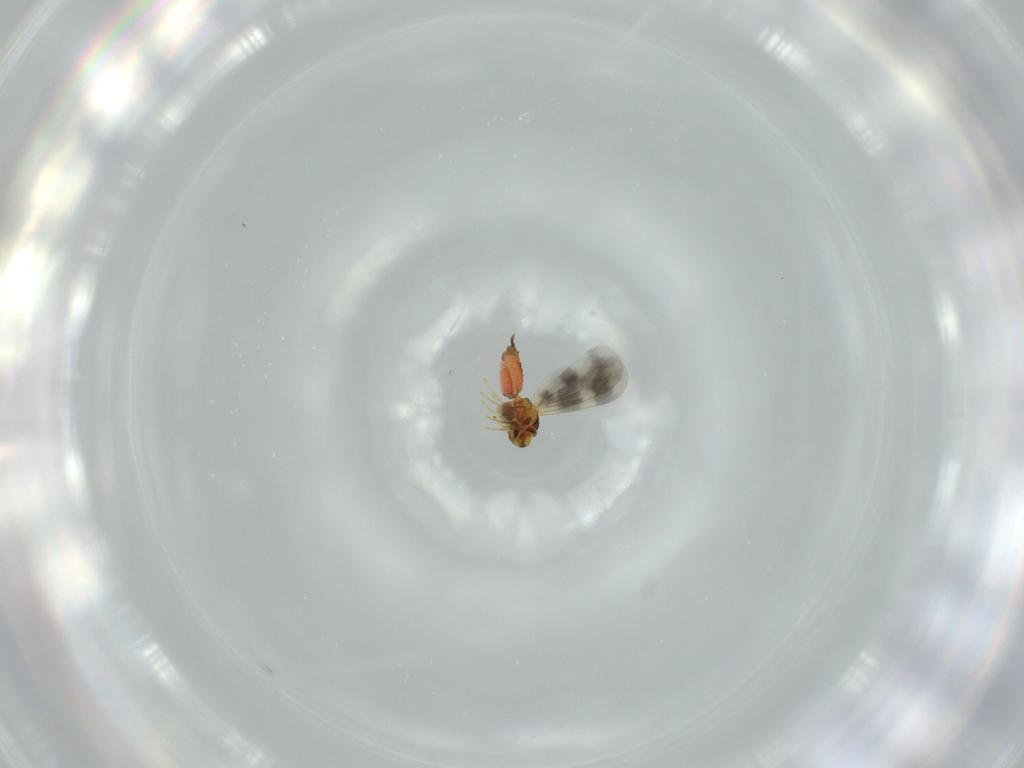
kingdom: Animalia
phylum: Arthropoda
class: Insecta
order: Hemiptera
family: Aleyrodidae
